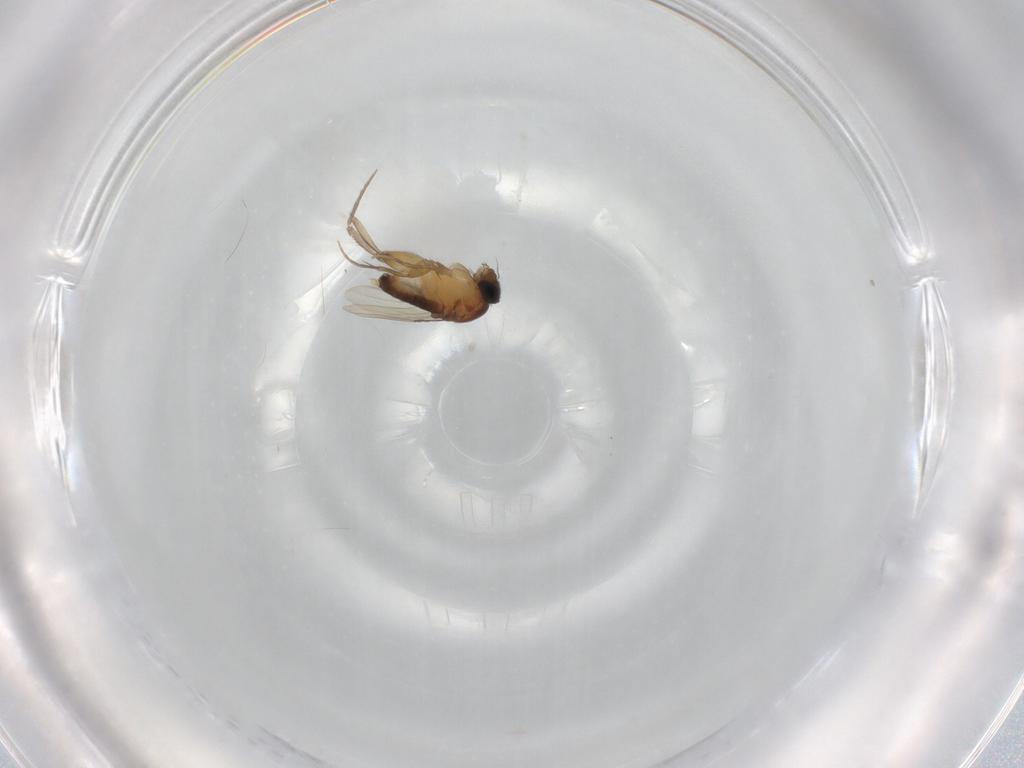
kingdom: Animalia
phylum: Arthropoda
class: Insecta
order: Diptera
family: Phoridae
